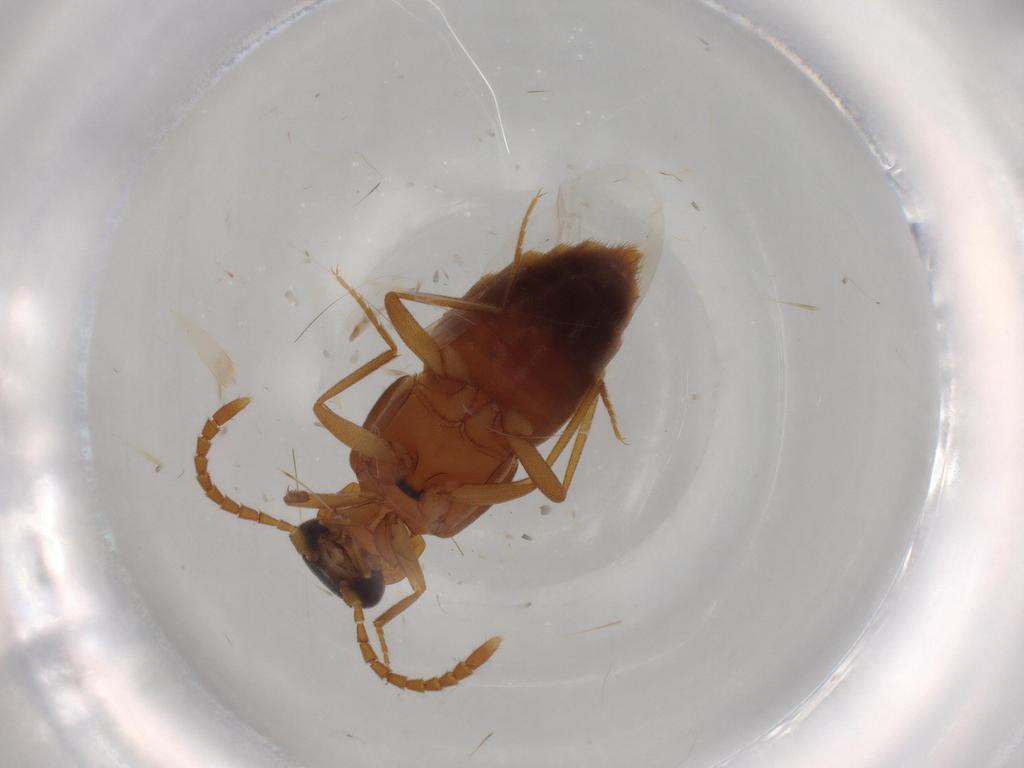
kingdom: Animalia
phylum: Arthropoda
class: Insecta
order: Coleoptera
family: Staphylinidae
